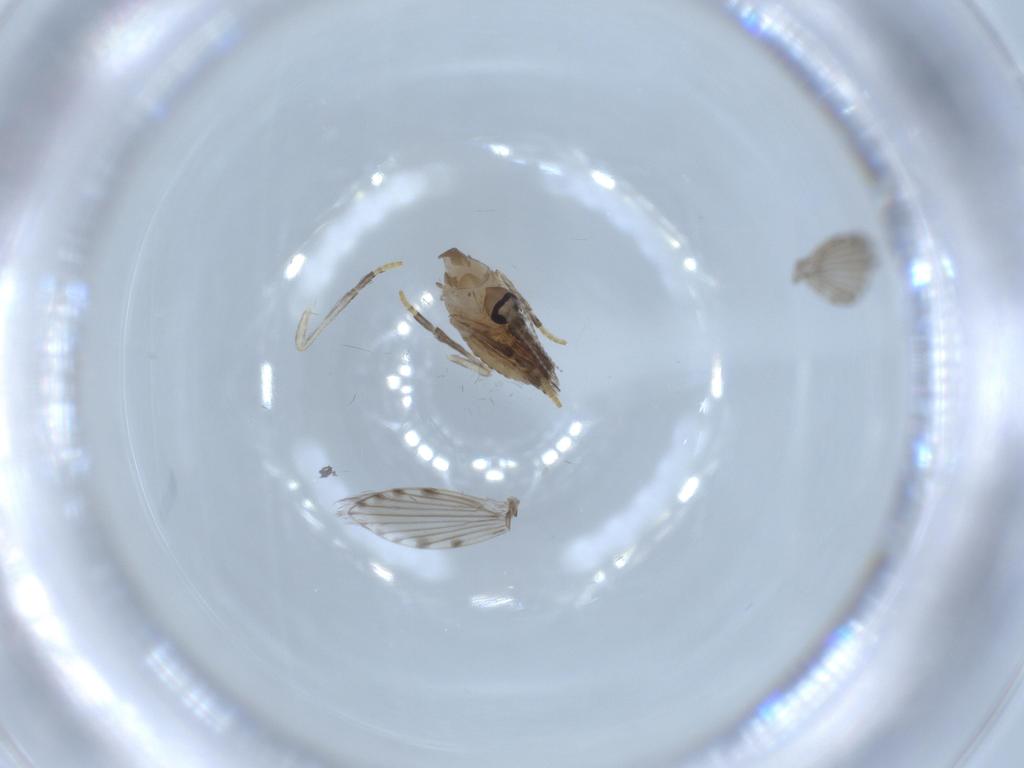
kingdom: Animalia
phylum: Arthropoda
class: Insecta
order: Diptera
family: Psychodidae
